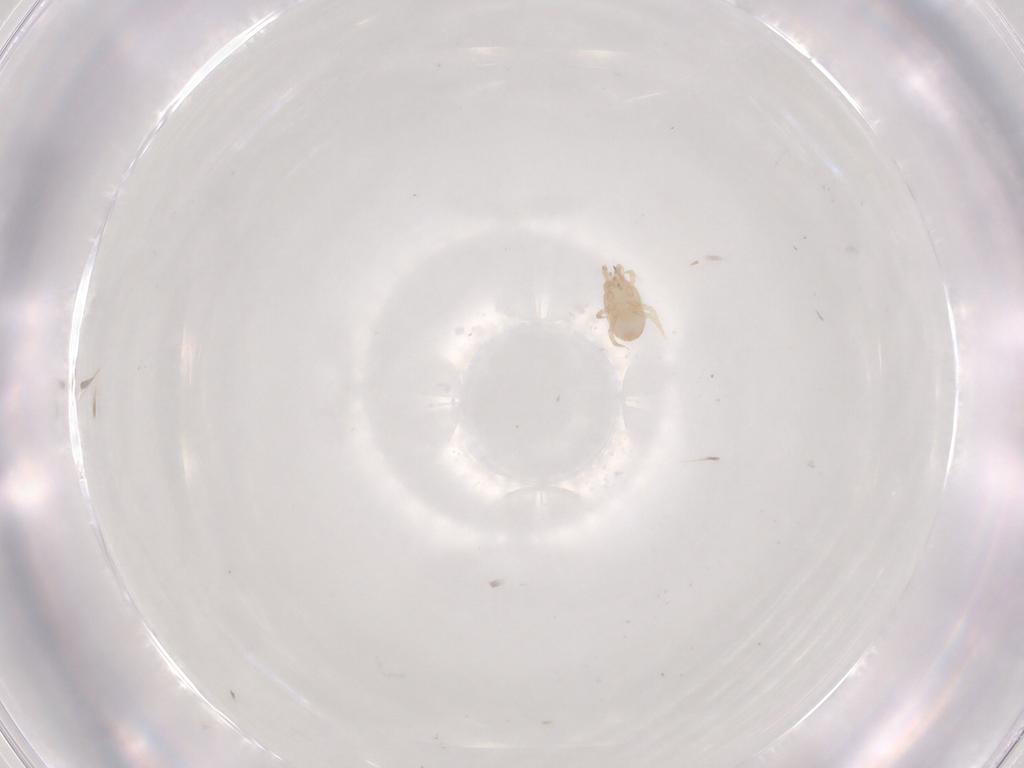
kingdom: Animalia
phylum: Arthropoda
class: Arachnida
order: Mesostigmata
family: Melicharidae
